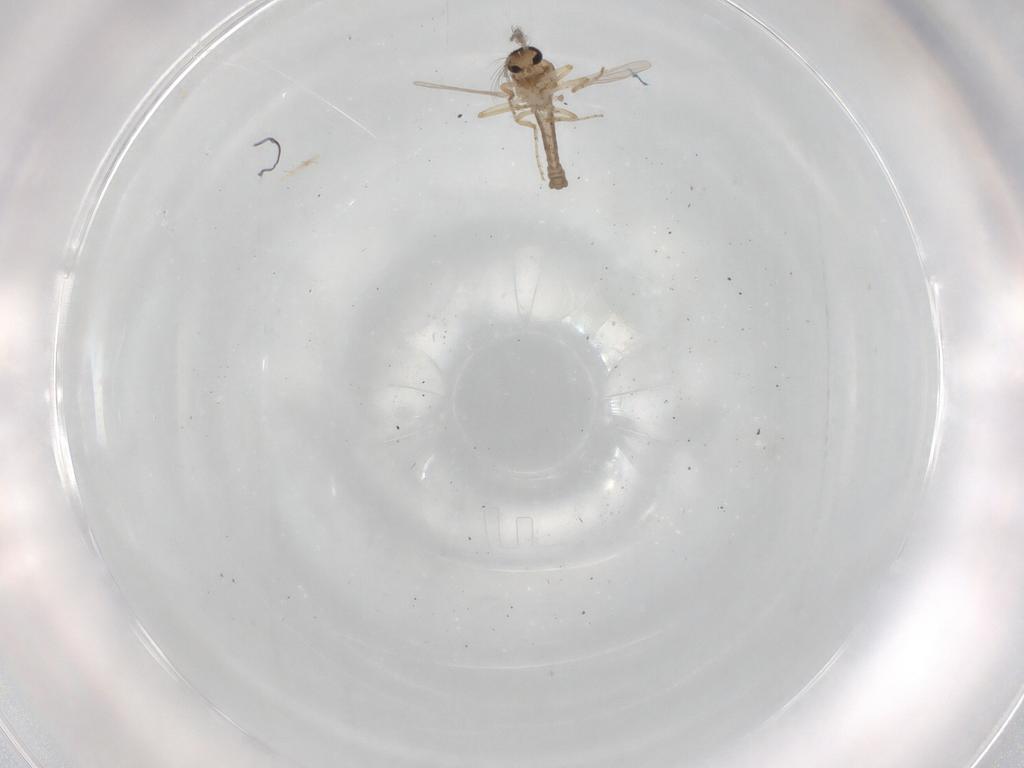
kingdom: Animalia
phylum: Arthropoda
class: Insecta
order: Diptera
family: Ceratopogonidae
